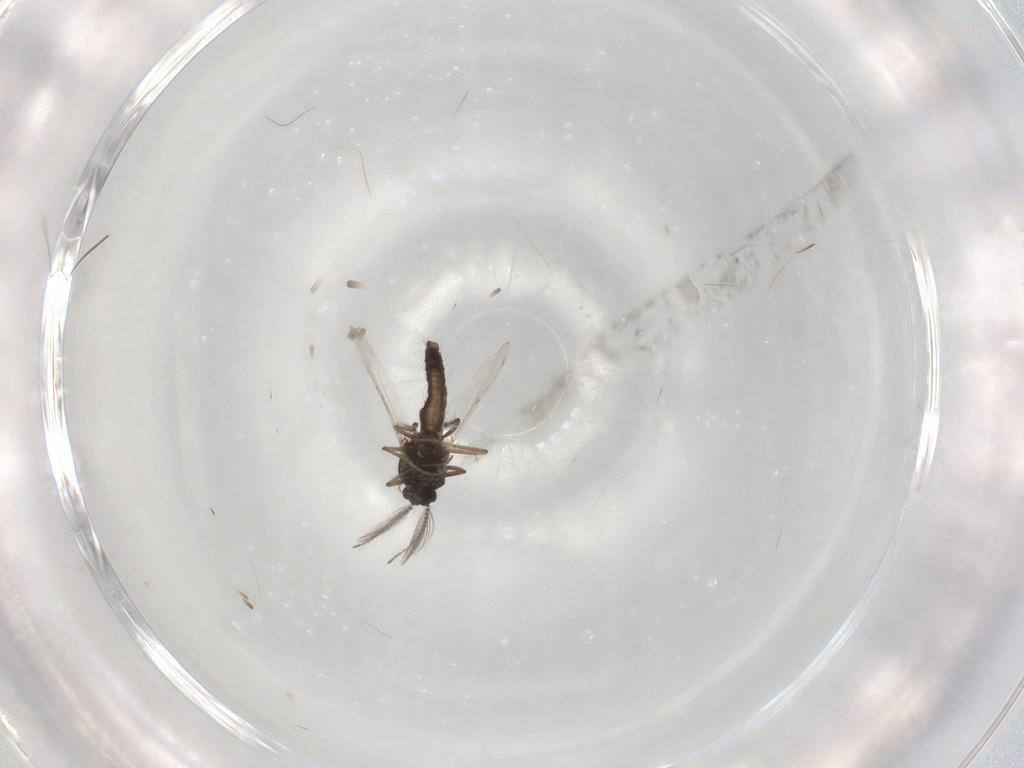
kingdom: Animalia
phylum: Arthropoda
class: Insecta
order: Diptera
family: Ceratopogonidae
